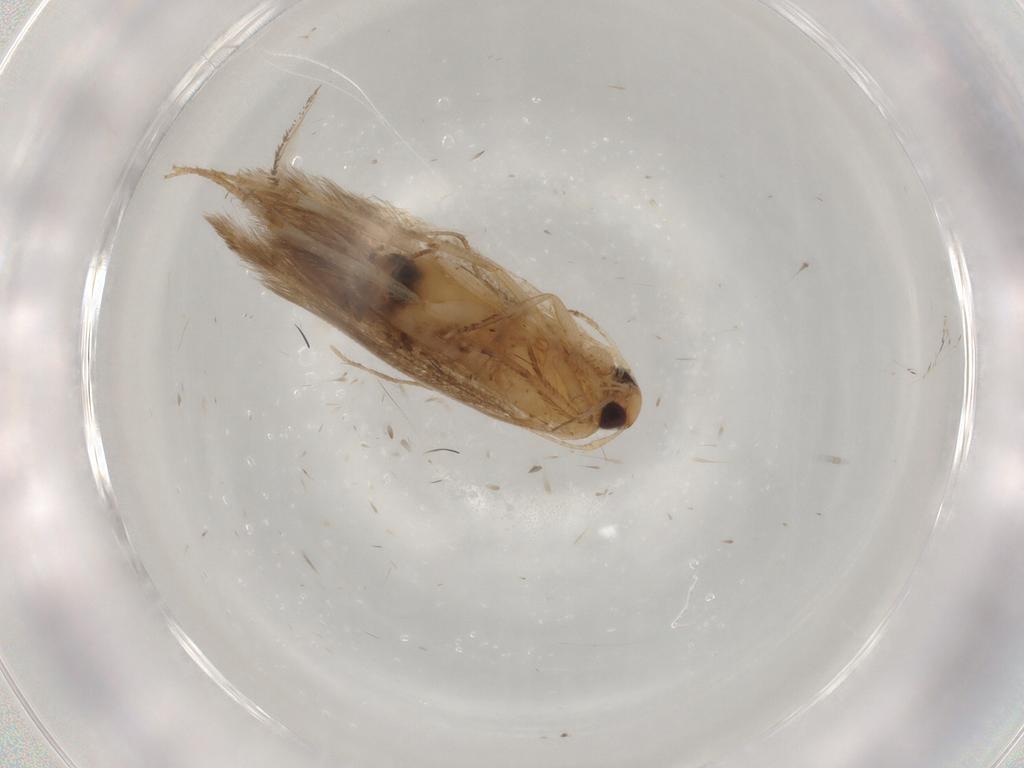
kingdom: Animalia
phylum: Arthropoda
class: Insecta
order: Lepidoptera
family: Cosmopterigidae
